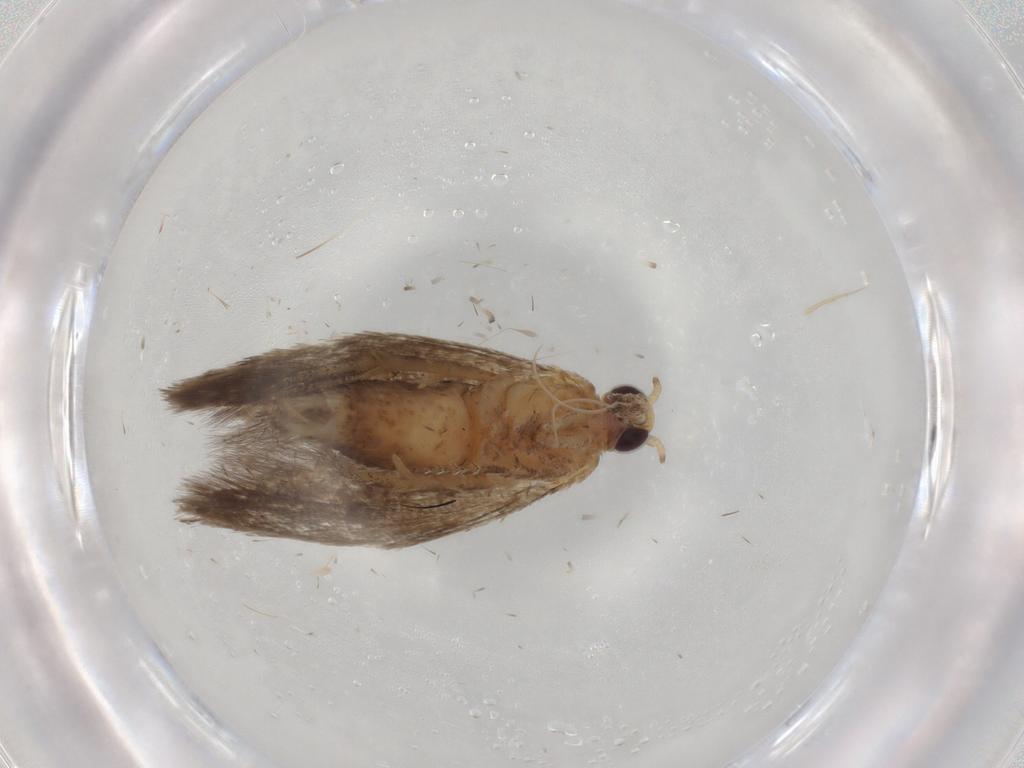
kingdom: Animalia
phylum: Arthropoda
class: Insecta
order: Lepidoptera
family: Plutellidae
